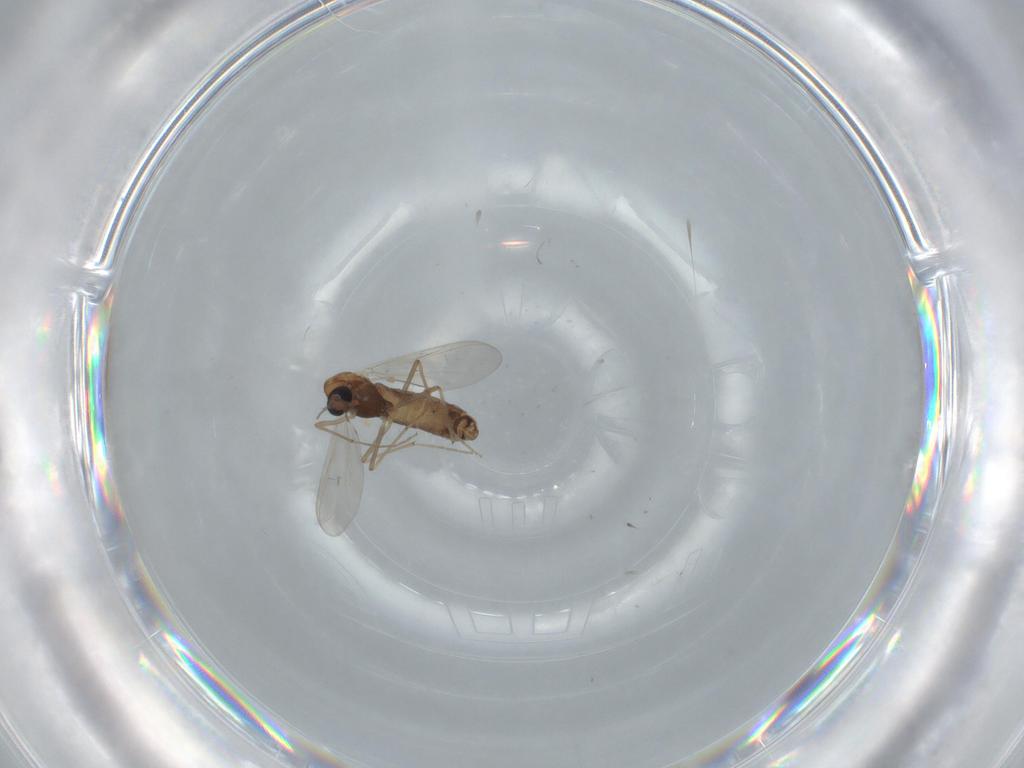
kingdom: Animalia
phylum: Arthropoda
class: Insecta
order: Diptera
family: Chironomidae
